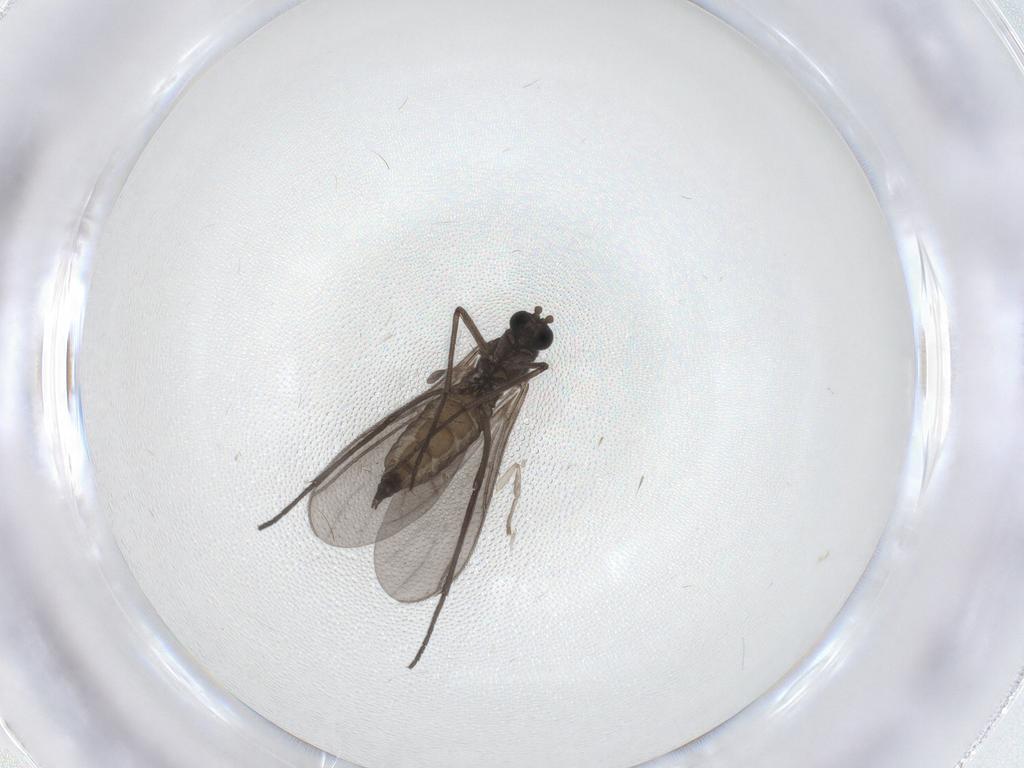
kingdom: Animalia
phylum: Arthropoda
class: Insecta
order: Diptera
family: Sciaridae
